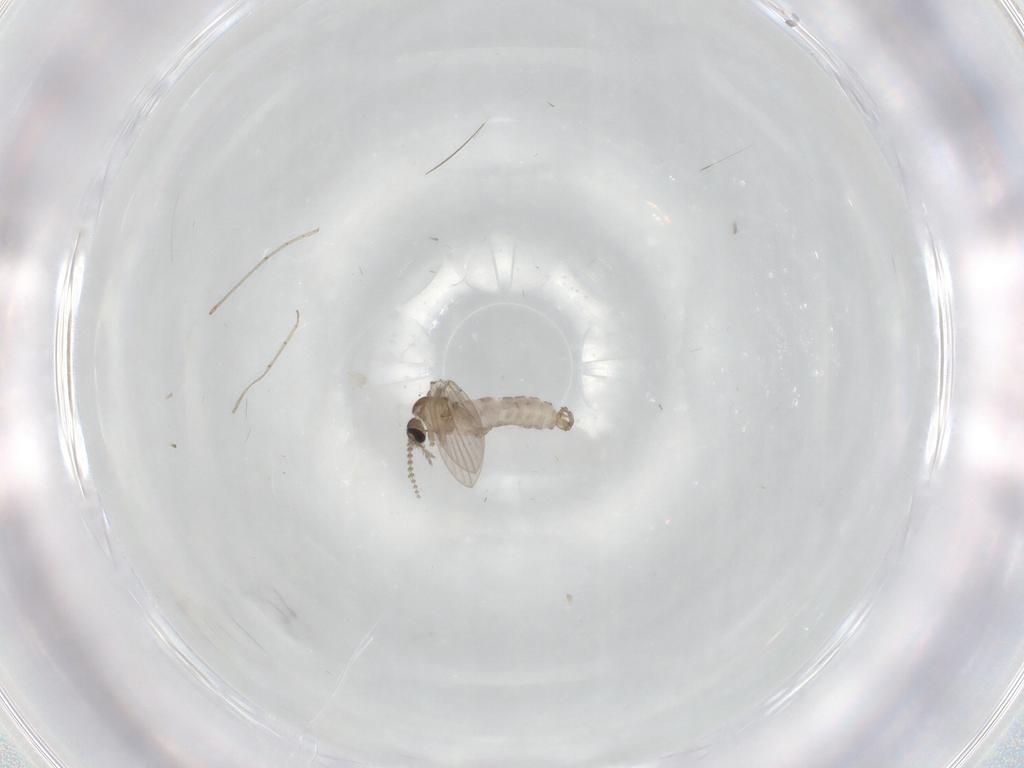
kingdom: Animalia
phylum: Arthropoda
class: Insecta
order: Diptera
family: Psychodidae
